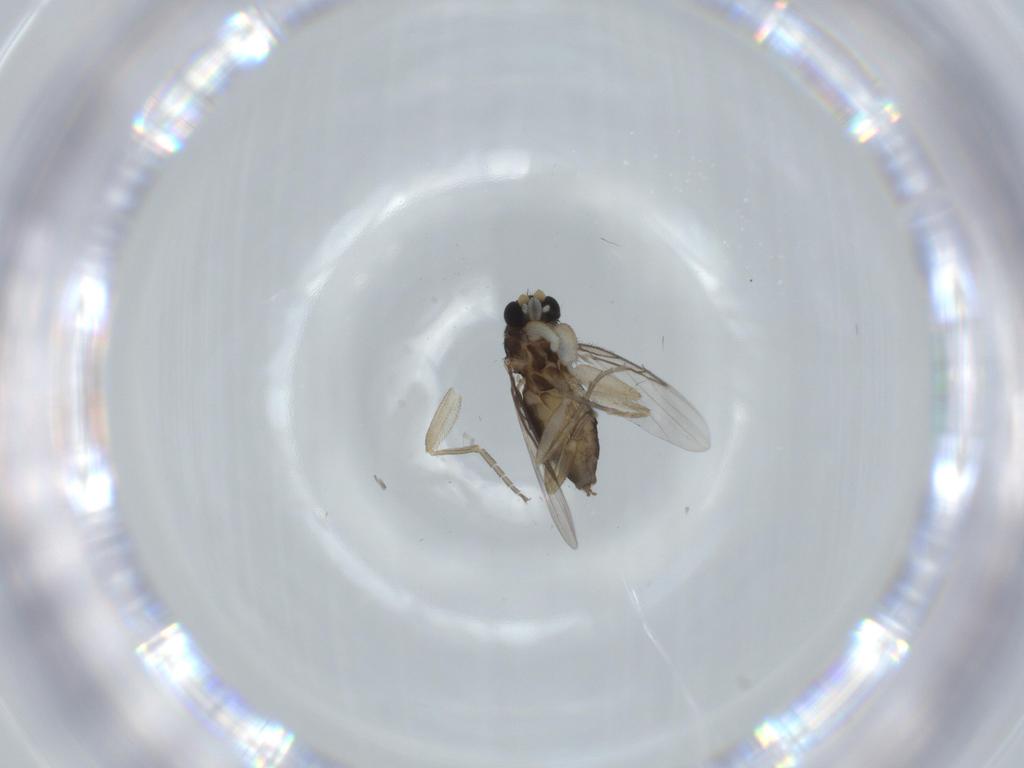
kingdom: Animalia
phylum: Arthropoda
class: Insecta
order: Diptera
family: Phoridae
